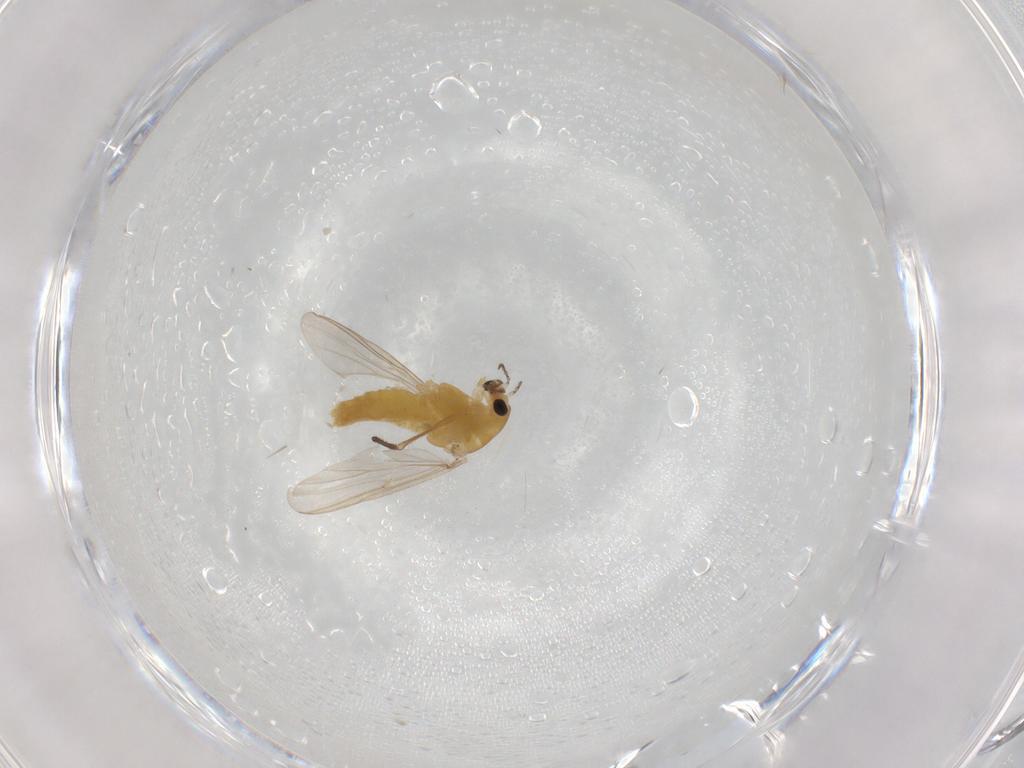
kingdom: Animalia
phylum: Arthropoda
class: Insecta
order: Diptera
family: Chironomidae
